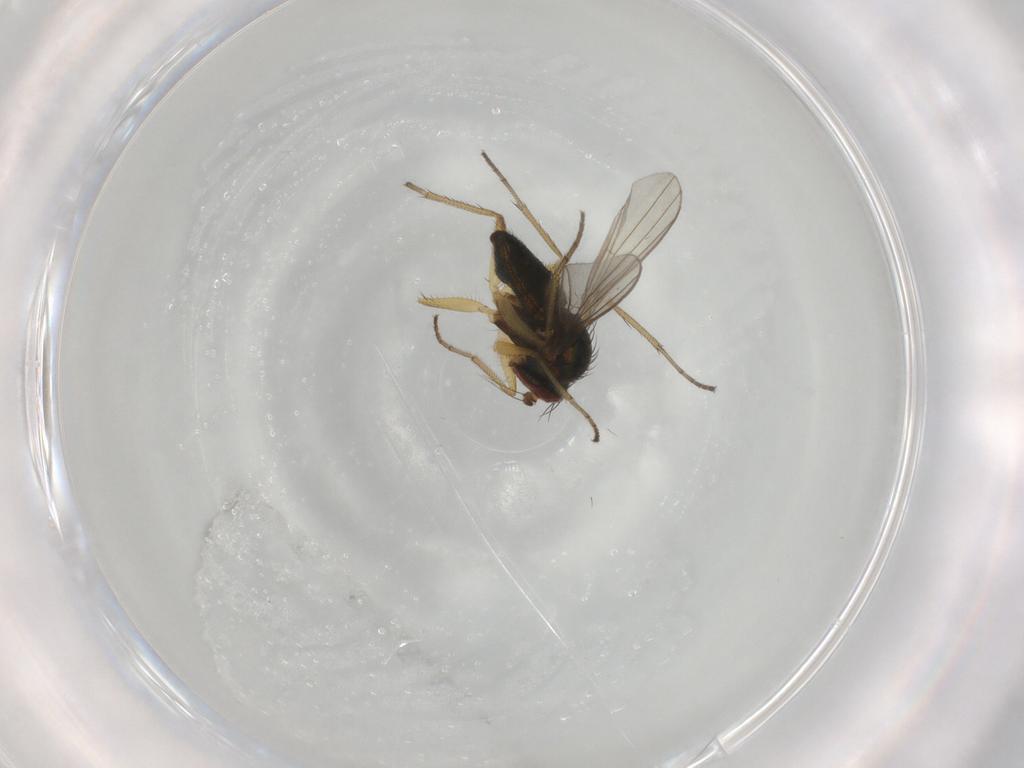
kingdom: Animalia
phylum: Arthropoda
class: Insecta
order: Diptera
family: Dolichopodidae
